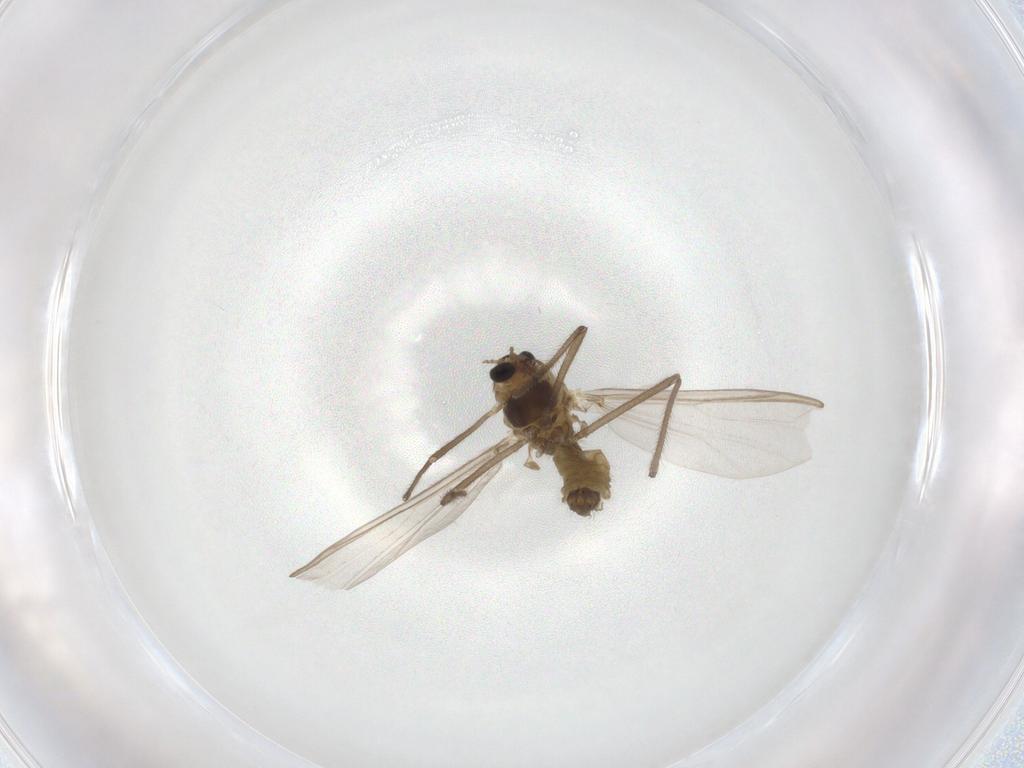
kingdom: Animalia
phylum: Arthropoda
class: Insecta
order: Diptera
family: Chironomidae
